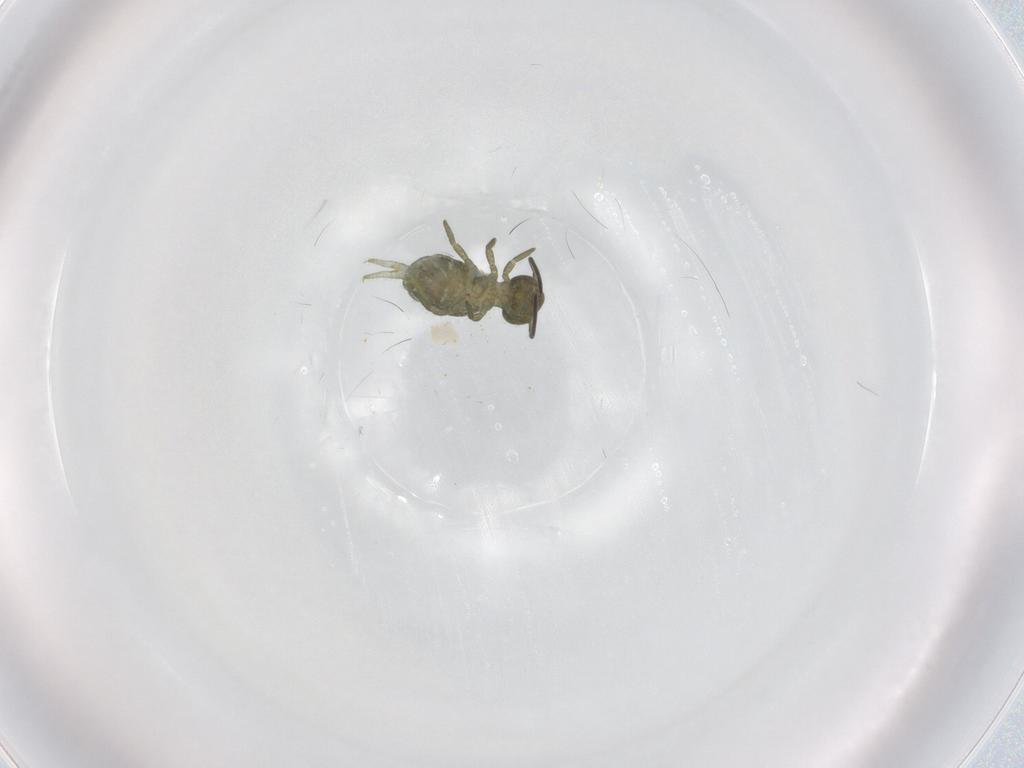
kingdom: Animalia
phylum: Arthropoda
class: Collembola
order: Symphypleona
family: Sminthuridae
